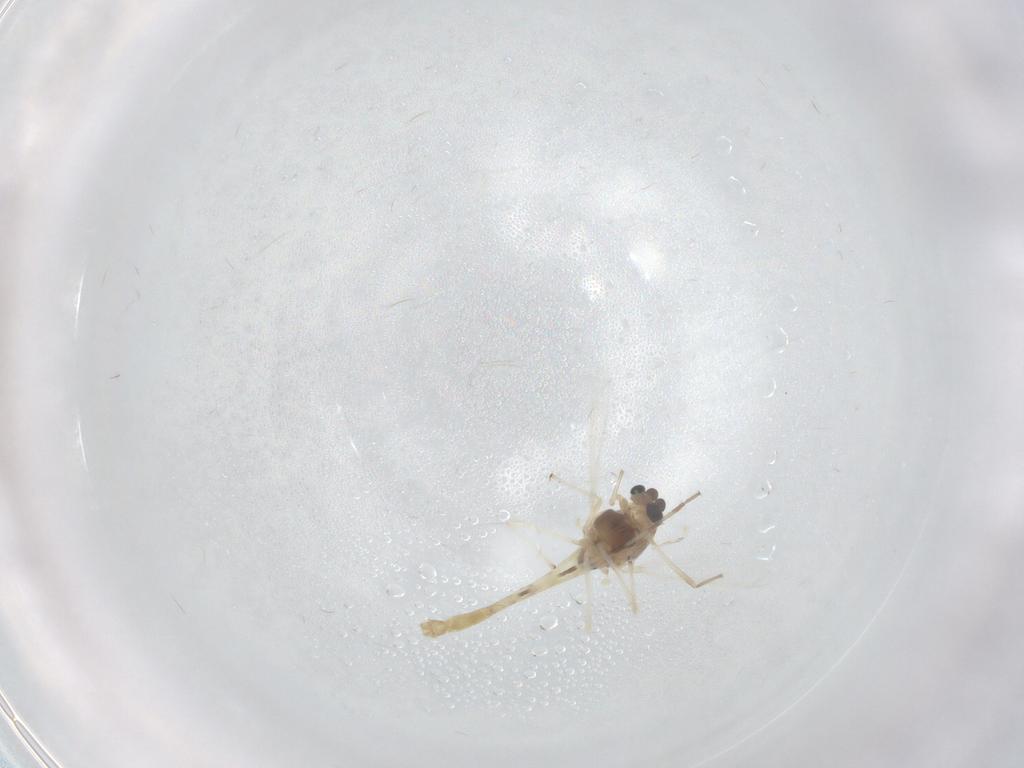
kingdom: Animalia
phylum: Arthropoda
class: Insecta
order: Diptera
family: Chironomidae
